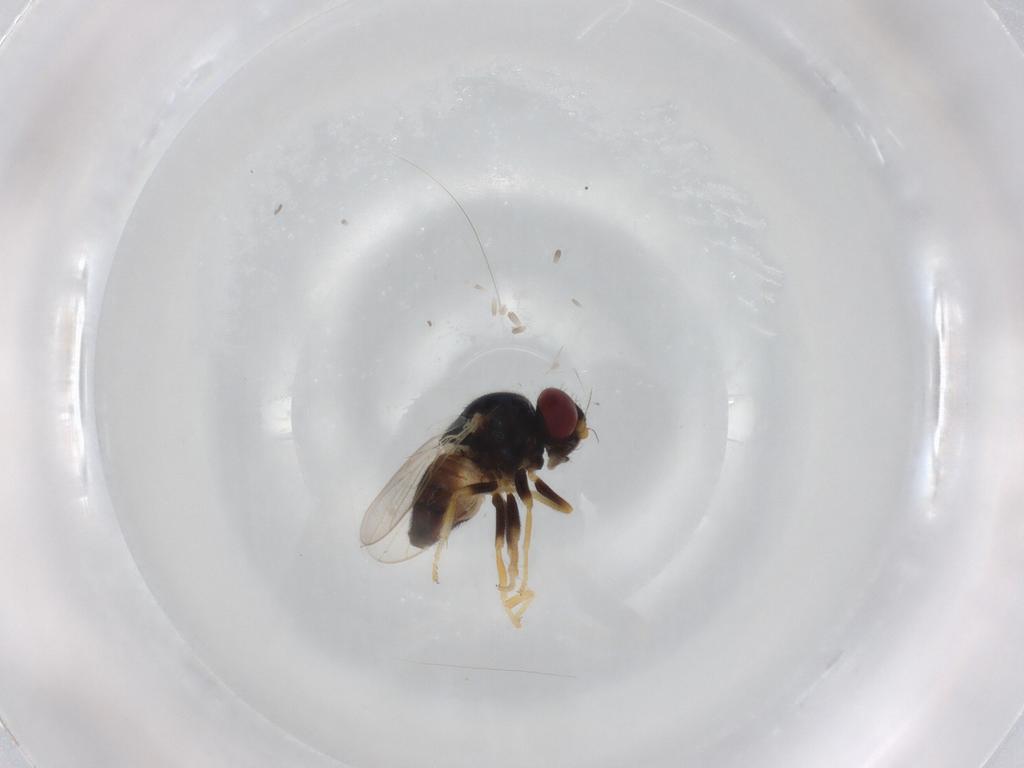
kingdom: Animalia
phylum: Arthropoda
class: Insecta
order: Diptera
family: Chloropidae
